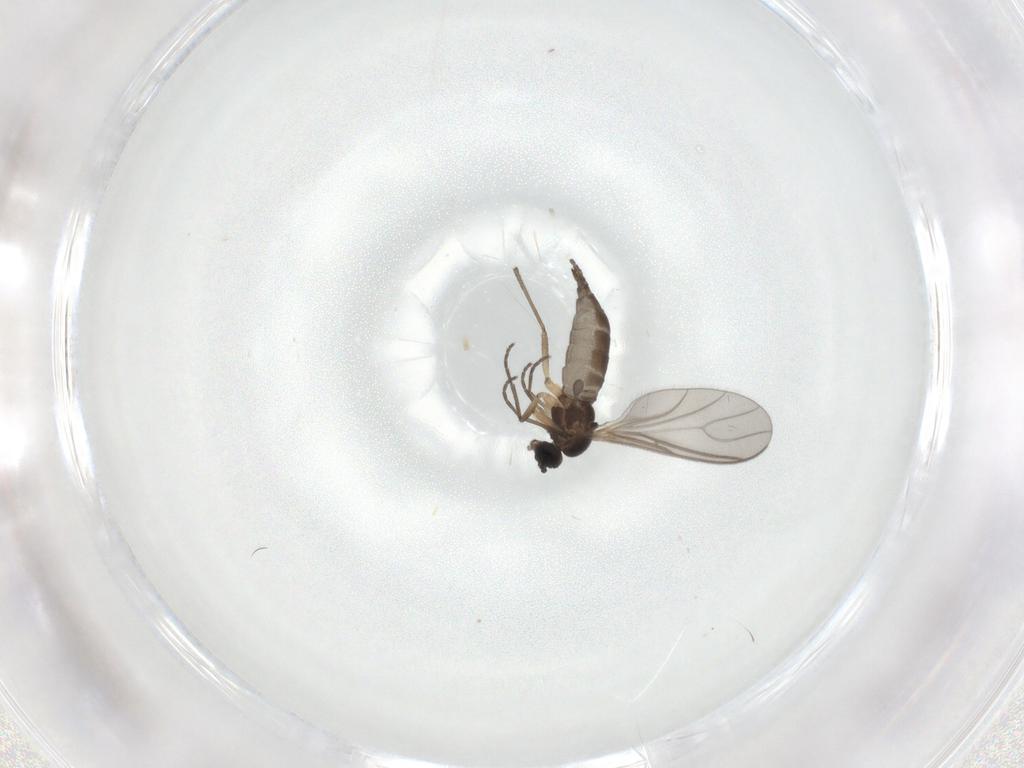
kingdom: Animalia
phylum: Arthropoda
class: Insecta
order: Diptera
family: Sciaridae
